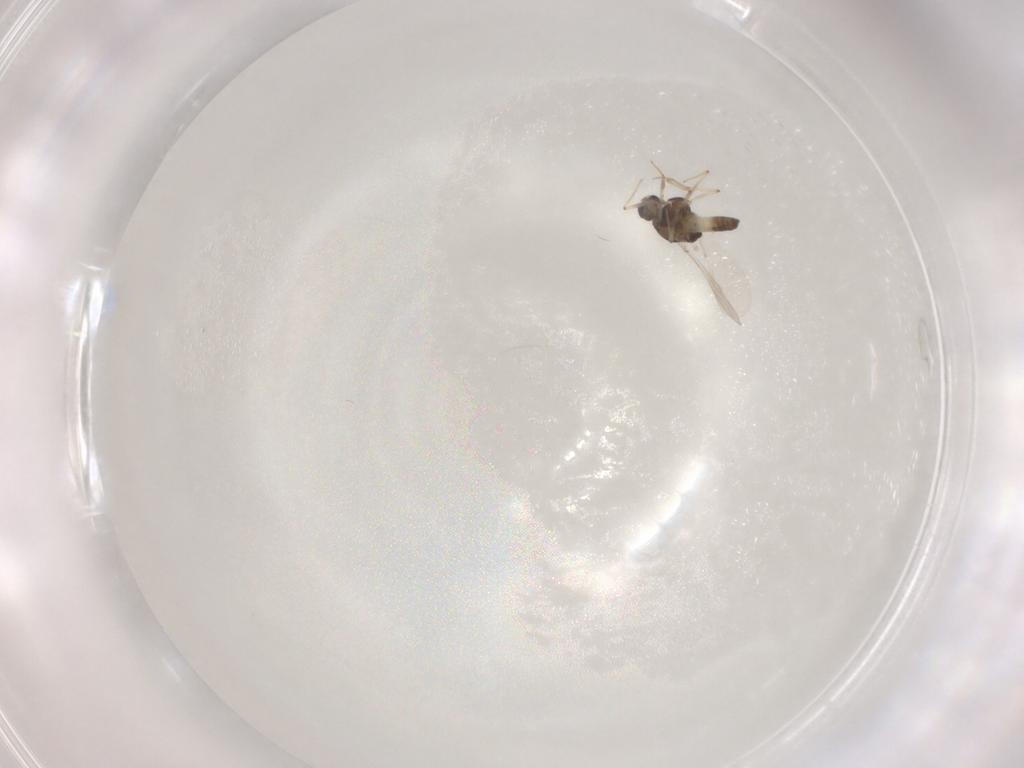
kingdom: Animalia
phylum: Arthropoda
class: Insecta
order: Diptera
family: Chironomidae
